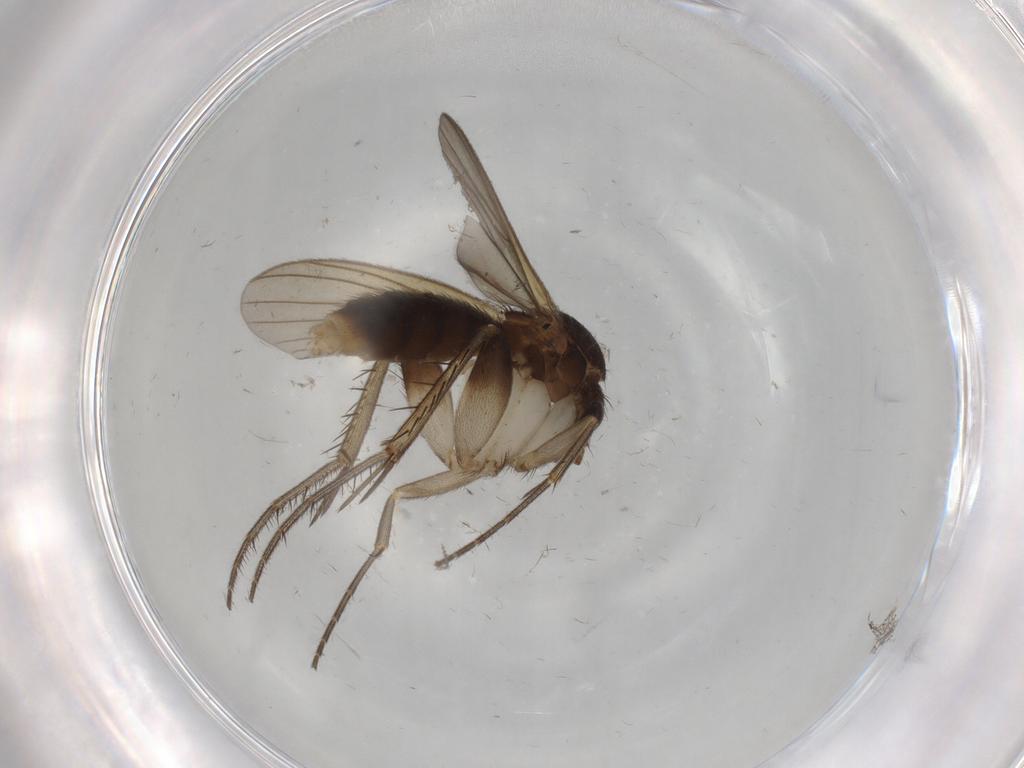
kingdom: Animalia
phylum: Arthropoda
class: Insecta
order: Diptera
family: Mycetophilidae
